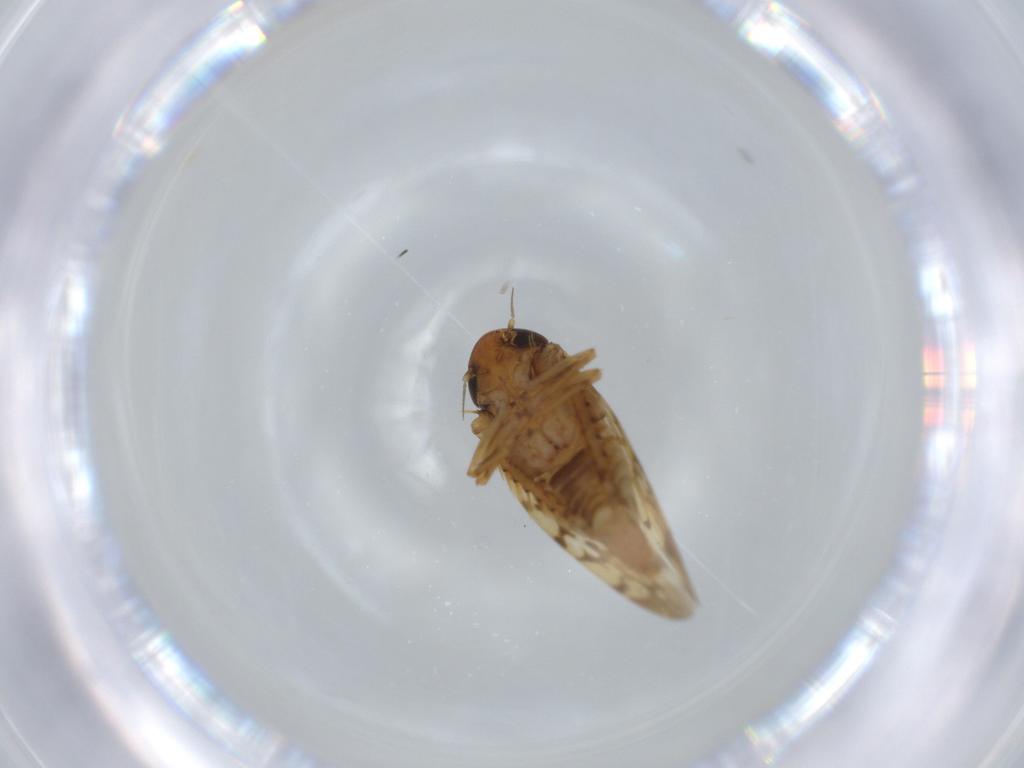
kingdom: Animalia
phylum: Arthropoda
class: Insecta
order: Hemiptera
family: Cicadellidae
